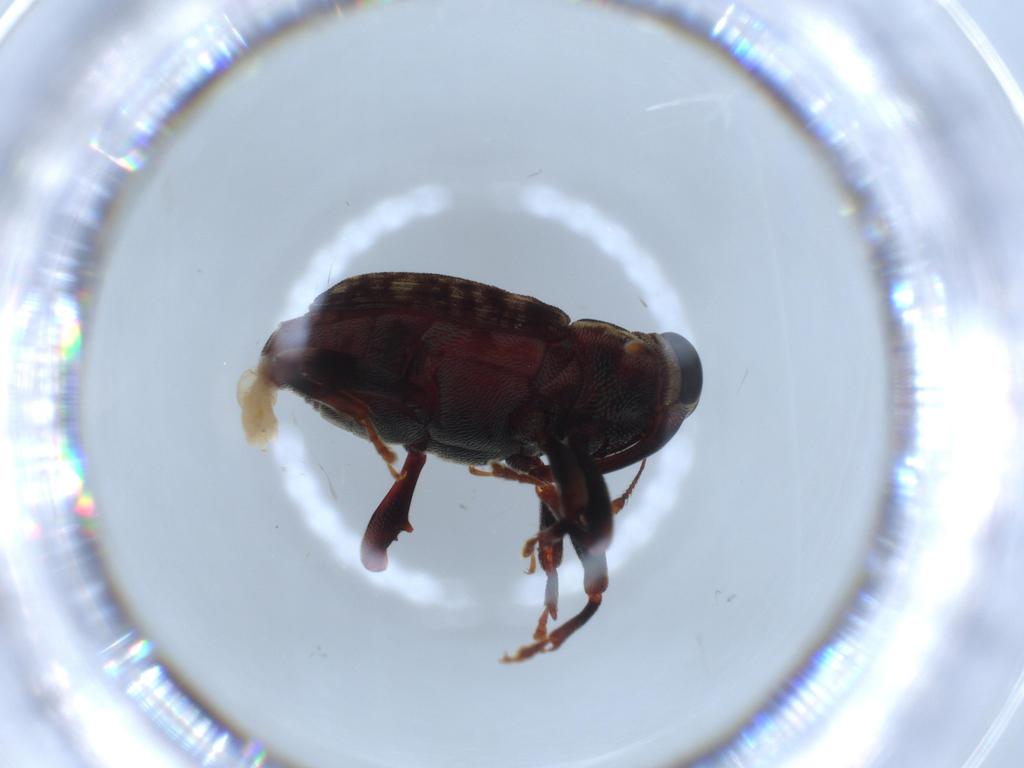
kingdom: Animalia
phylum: Arthropoda
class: Insecta
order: Coleoptera
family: Curculionidae
